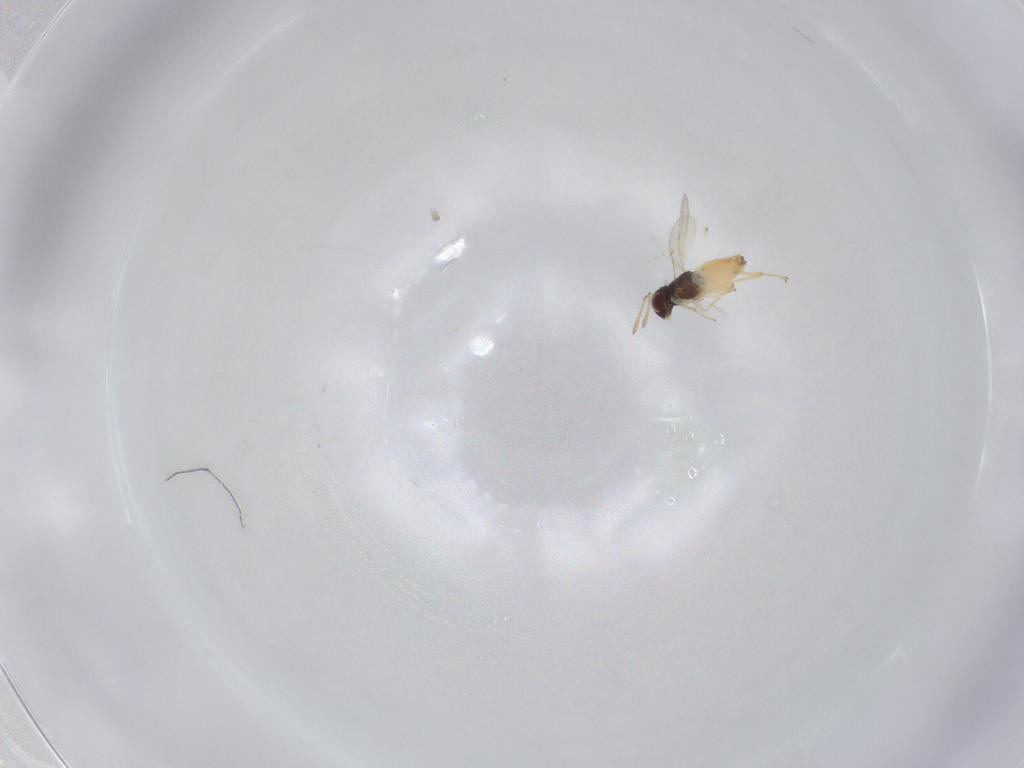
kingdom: Animalia
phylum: Arthropoda
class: Insecta
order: Hymenoptera
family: Encyrtidae
